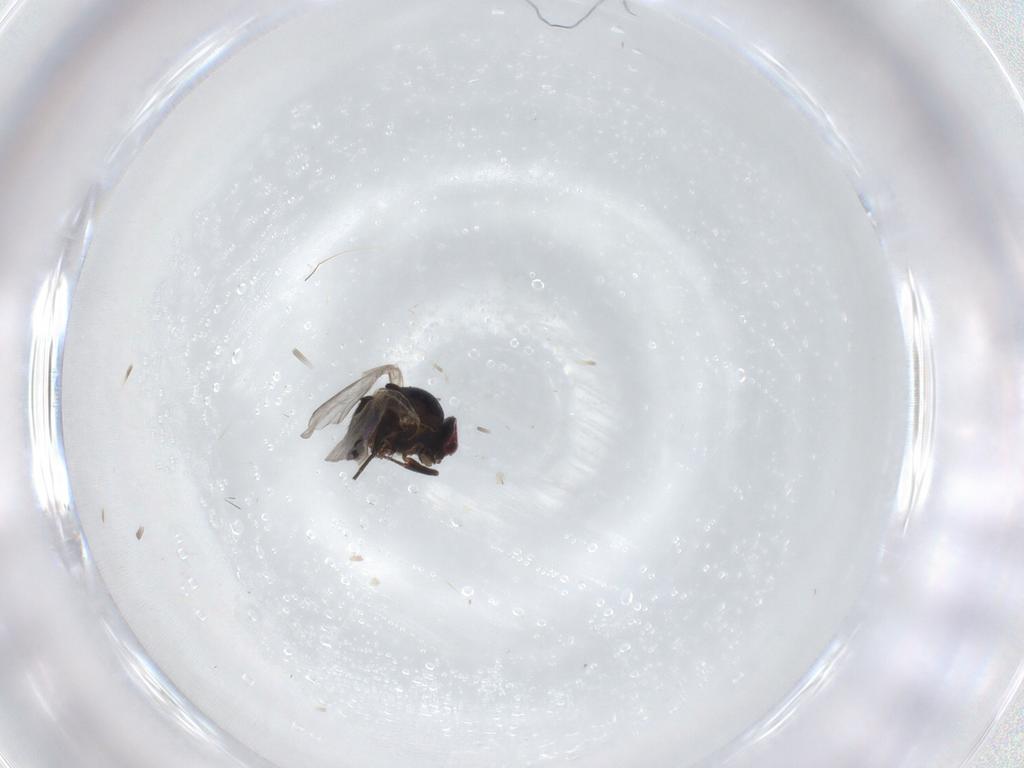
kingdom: Animalia
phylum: Arthropoda
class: Insecta
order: Diptera
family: Agromyzidae
